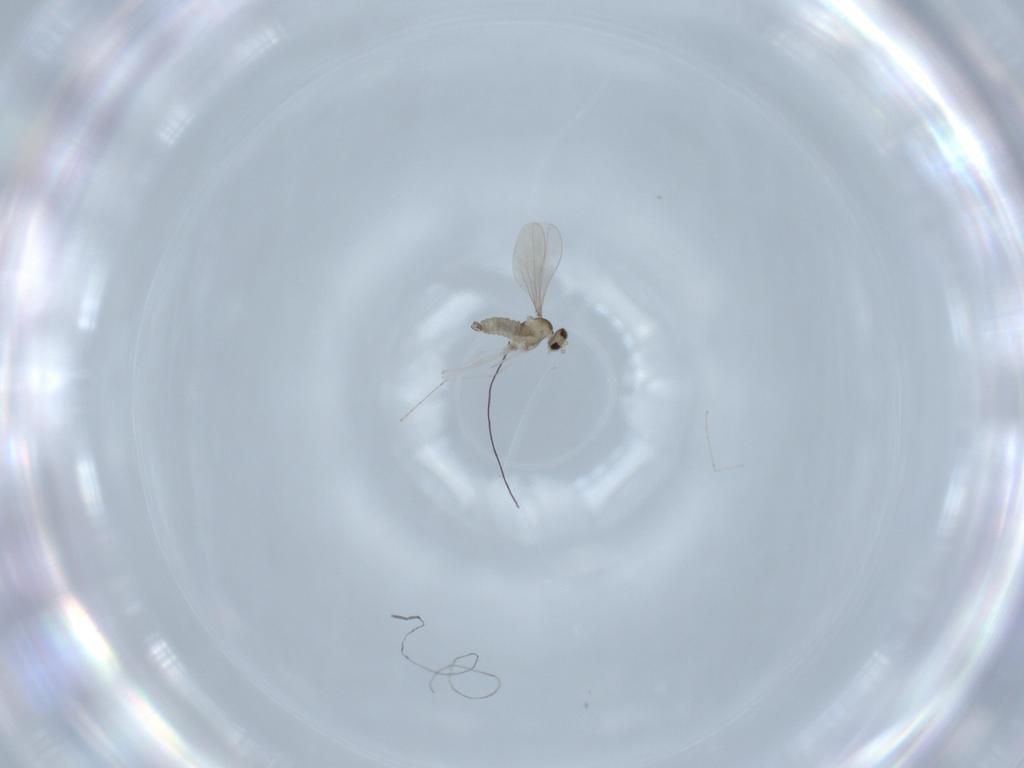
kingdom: Animalia
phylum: Arthropoda
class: Insecta
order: Diptera
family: Cecidomyiidae
